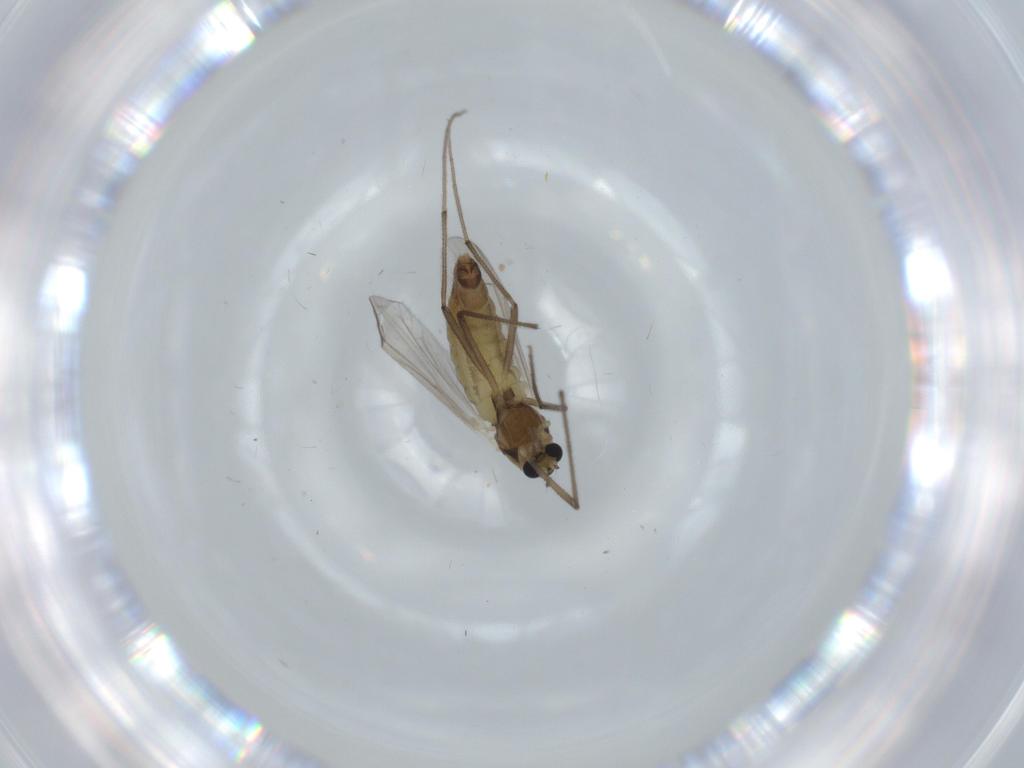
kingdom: Animalia
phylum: Arthropoda
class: Insecta
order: Diptera
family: Chironomidae
